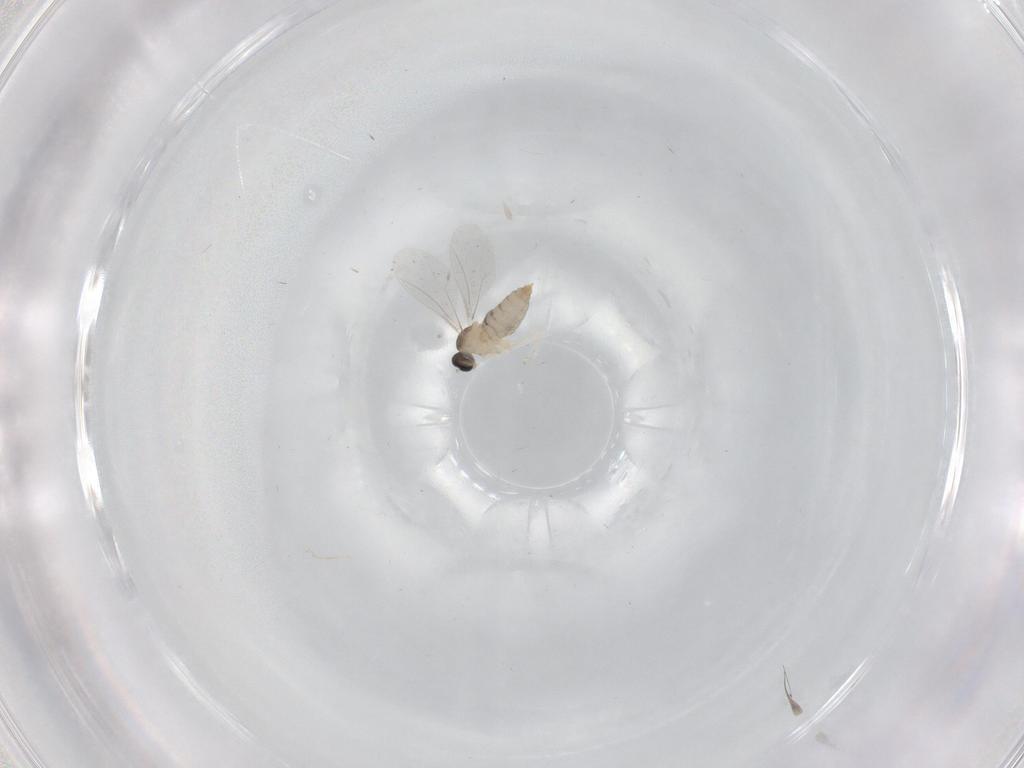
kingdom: Animalia
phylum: Arthropoda
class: Insecta
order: Diptera
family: Cecidomyiidae
